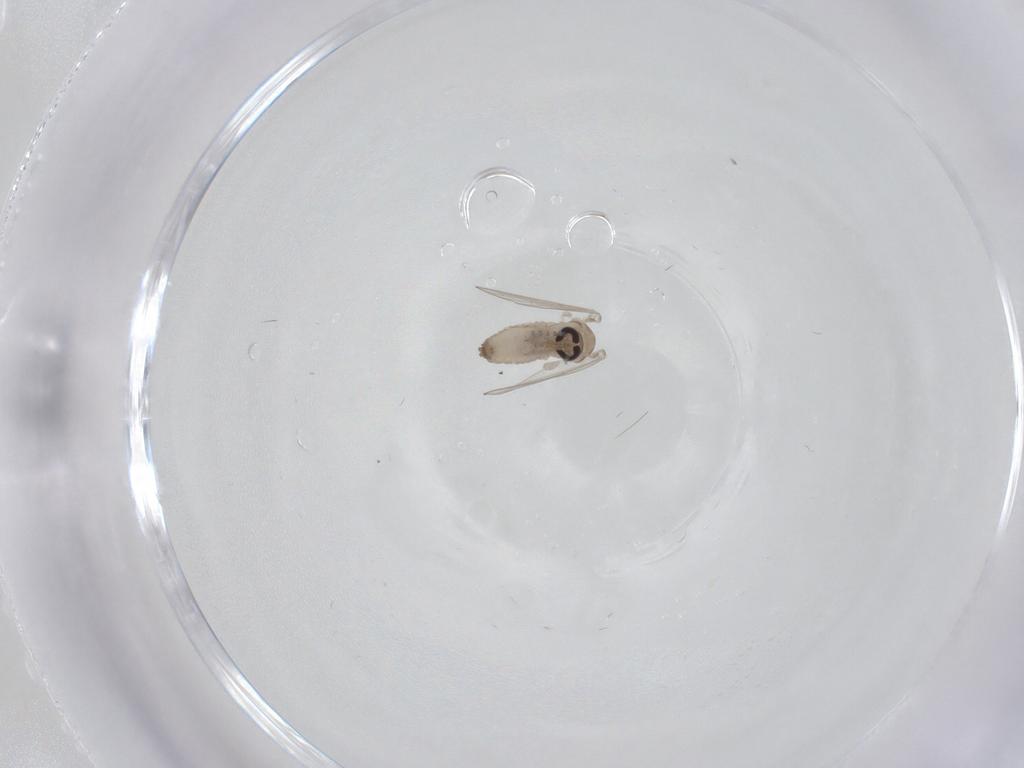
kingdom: Animalia
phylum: Arthropoda
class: Insecta
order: Diptera
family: Psychodidae
